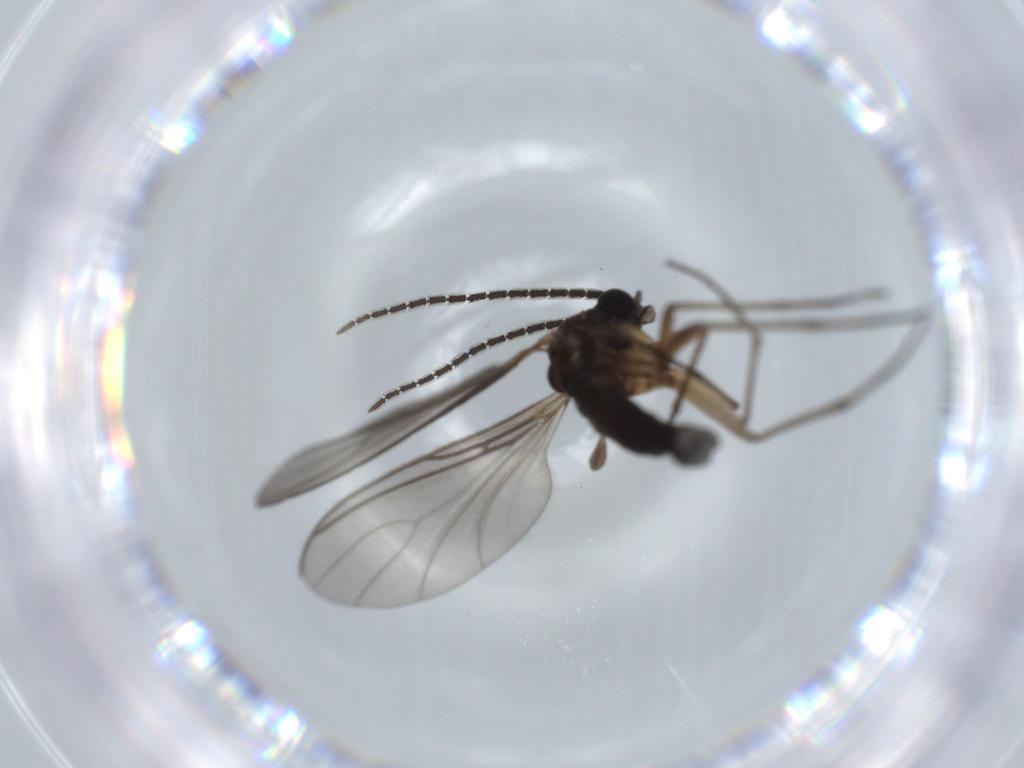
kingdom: Animalia
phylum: Arthropoda
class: Insecta
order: Diptera
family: Sciaridae
